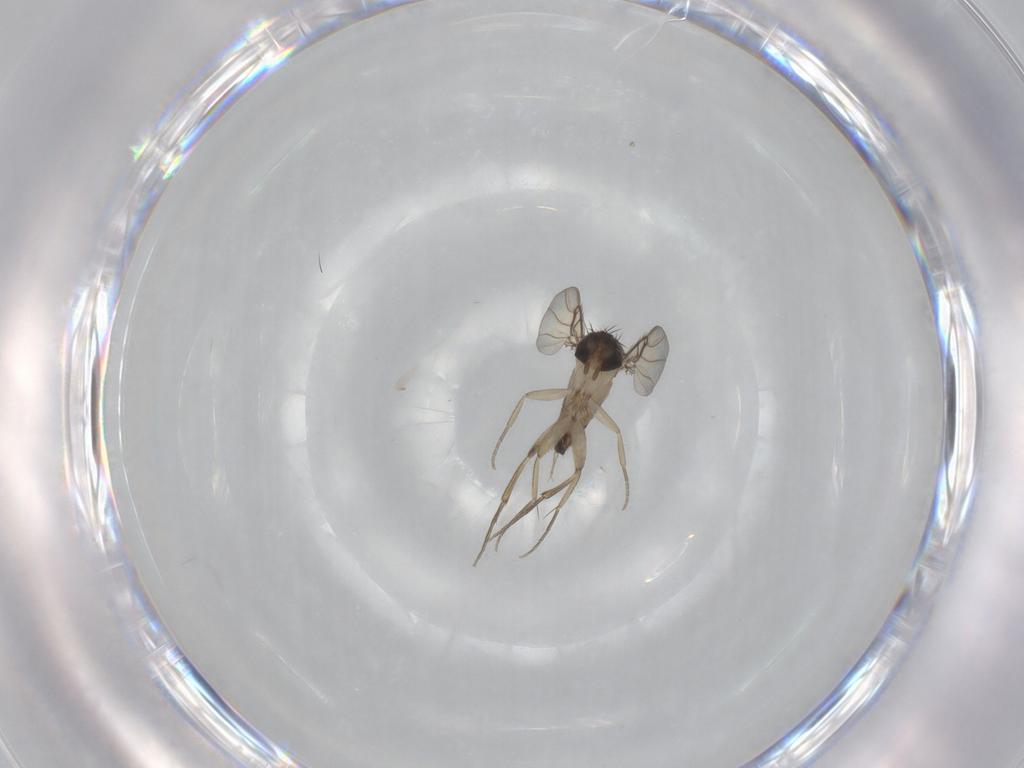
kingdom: Animalia
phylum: Arthropoda
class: Insecta
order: Diptera
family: Phoridae
